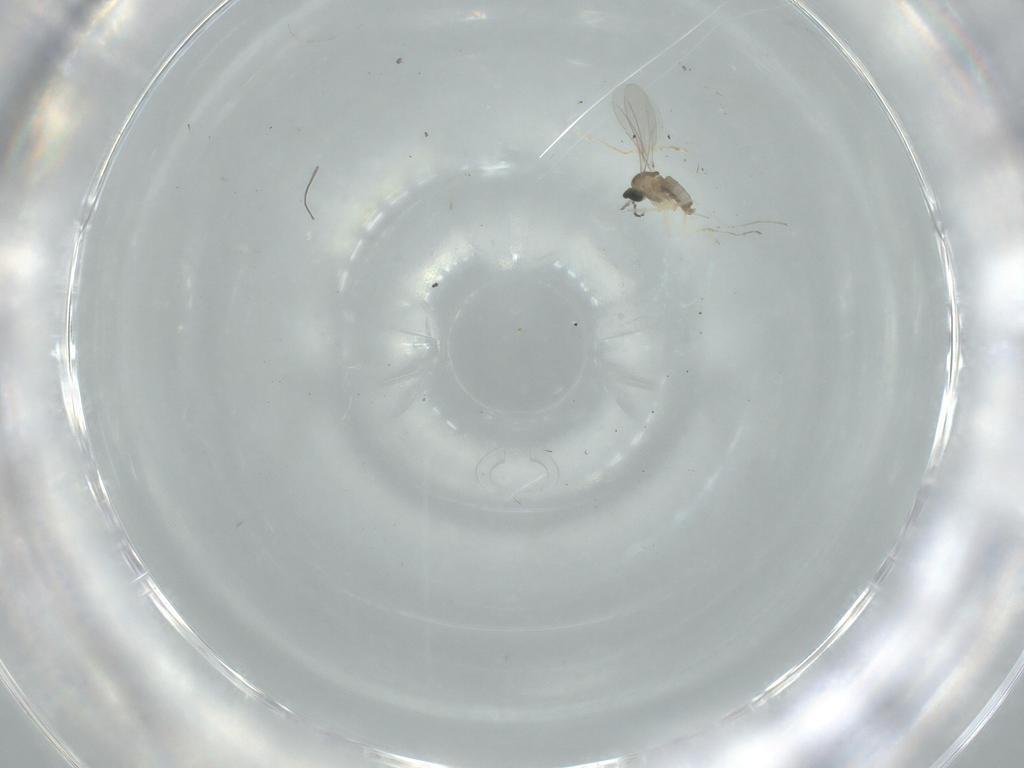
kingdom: Animalia
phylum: Arthropoda
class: Insecta
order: Diptera
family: Cecidomyiidae
